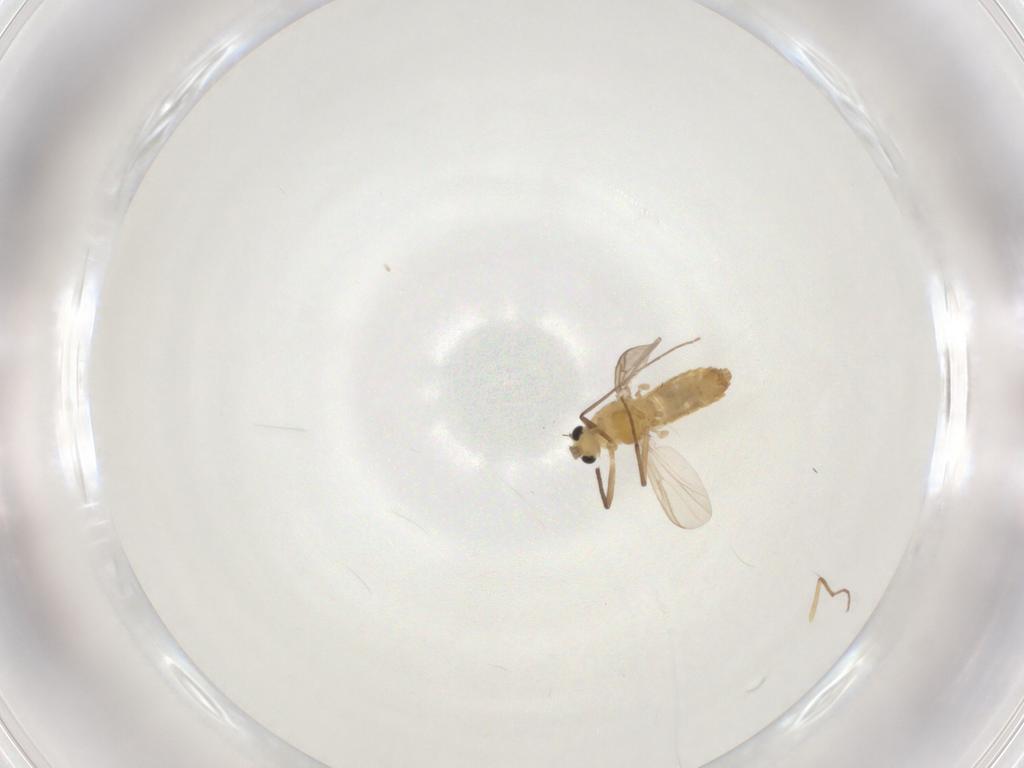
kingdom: Animalia
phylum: Arthropoda
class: Insecta
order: Diptera
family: Chironomidae
